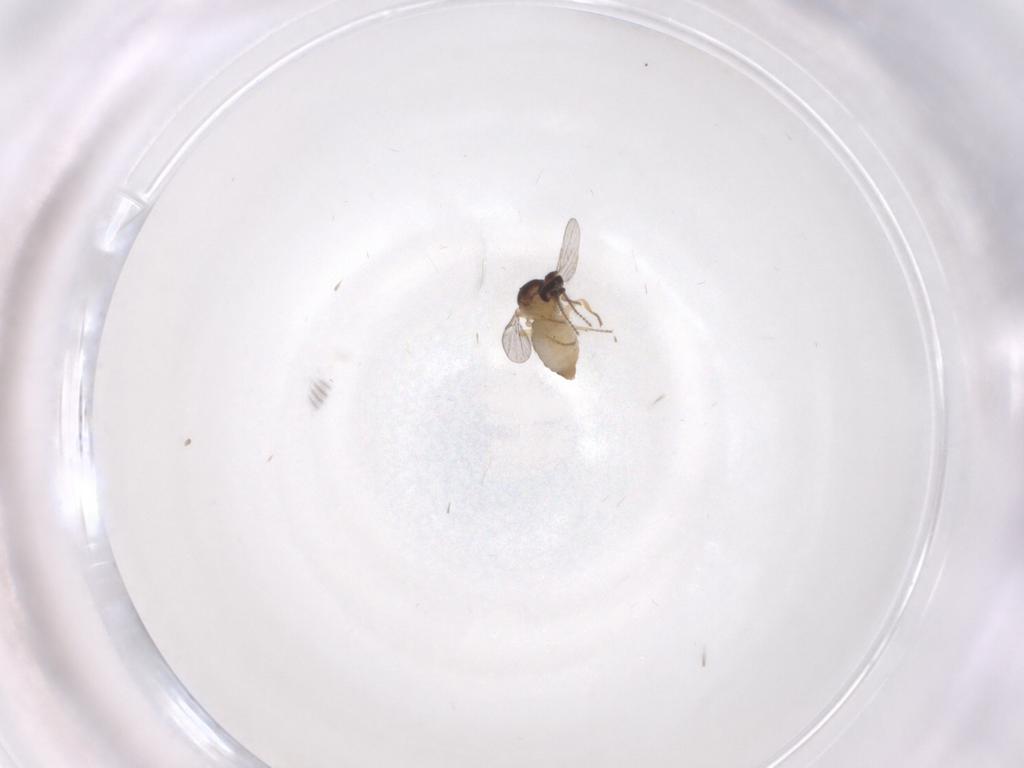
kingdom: Animalia
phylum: Arthropoda
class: Insecta
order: Diptera
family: Ceratopogonidae
